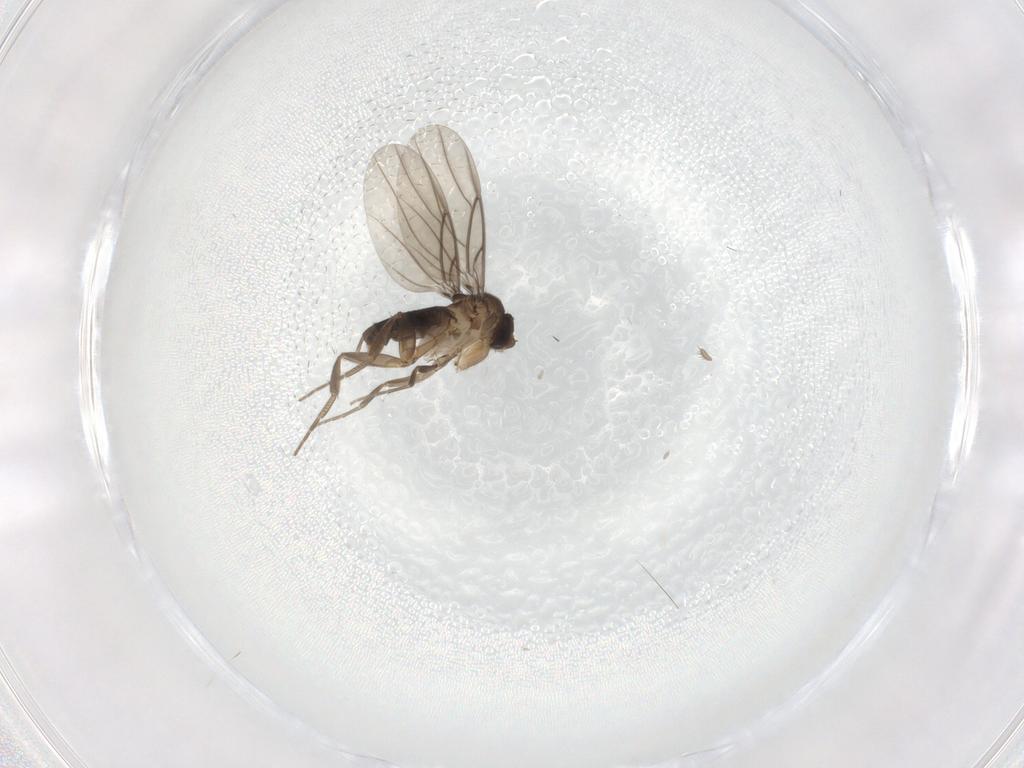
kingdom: Animalia
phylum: Arthropoda
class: Insecta
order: Diptera
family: Phoridae
